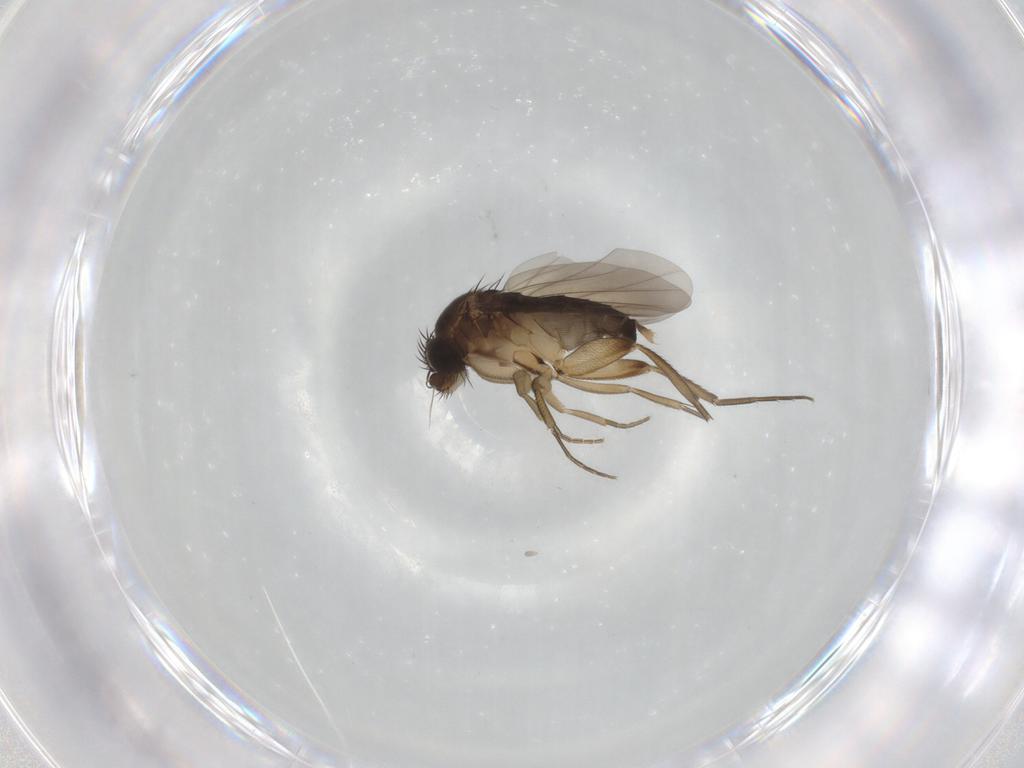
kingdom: Animalia
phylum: Arthropoda
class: Insecta
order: Diptera
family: Phoridae
